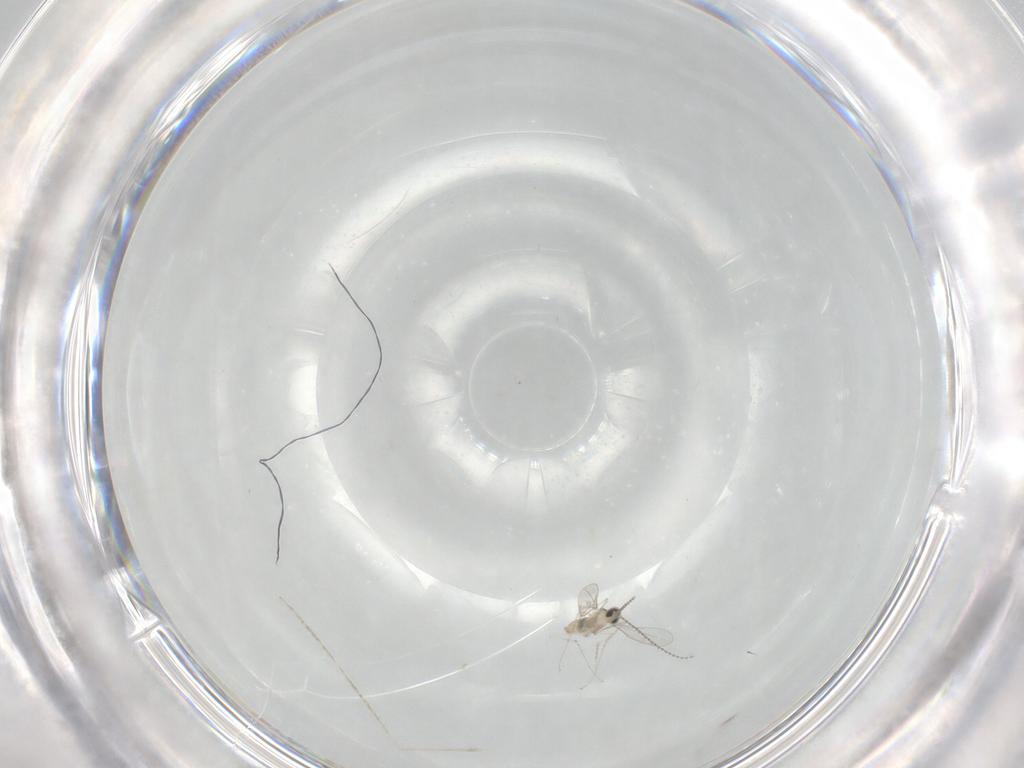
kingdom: Animalia
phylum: Arthropoda
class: Insecta
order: Diptera
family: Cecidomyiidae
